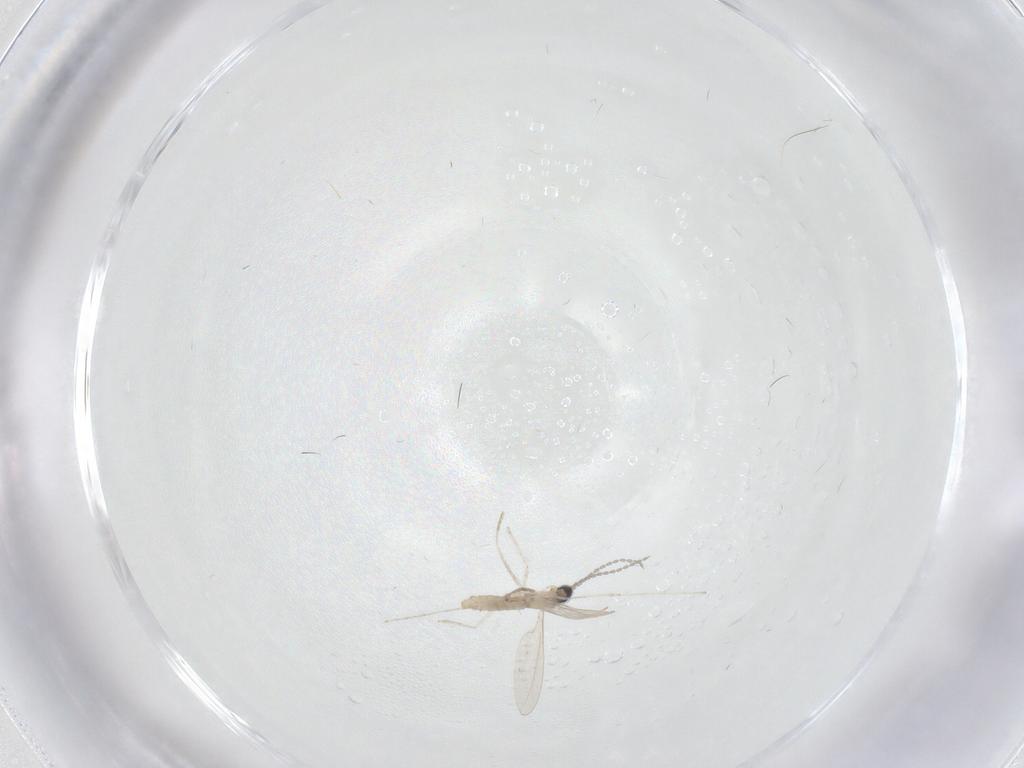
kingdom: Animalia
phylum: Arthropoda
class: Insecta
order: Diptera
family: Cecidomyiidae
